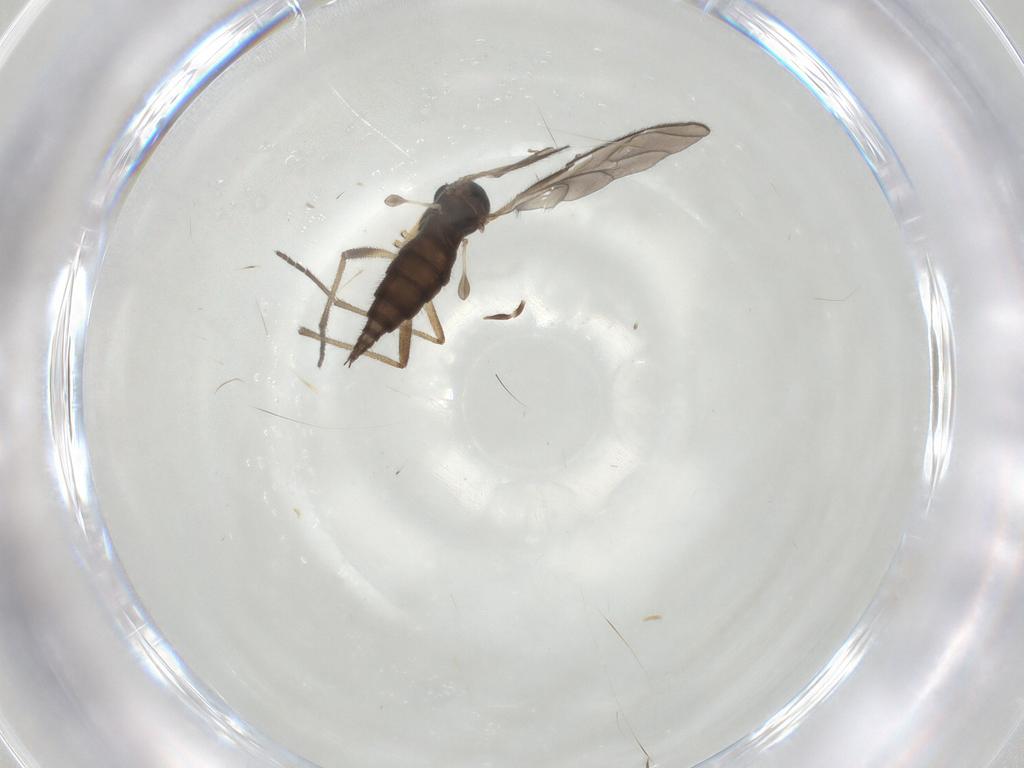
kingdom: Animalia
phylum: Arthropoda
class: Insecta
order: Diptera
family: Sciaridae
